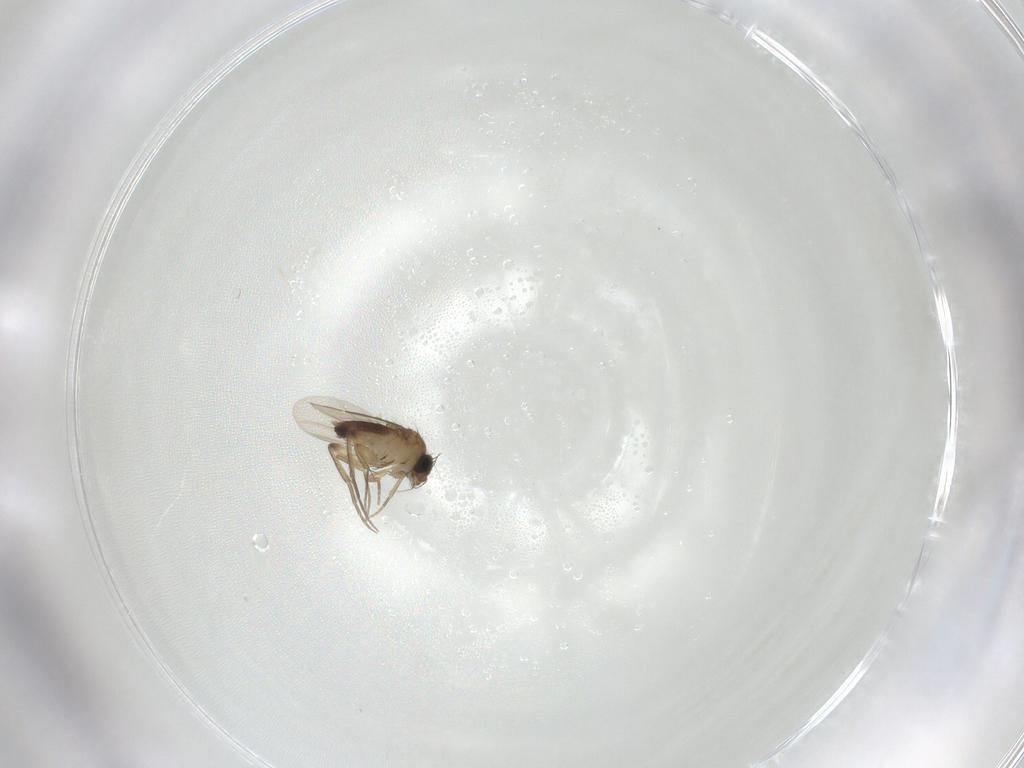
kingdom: Animalia
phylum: Arthropoda
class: Insecta
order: Diptera
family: Phoridae
